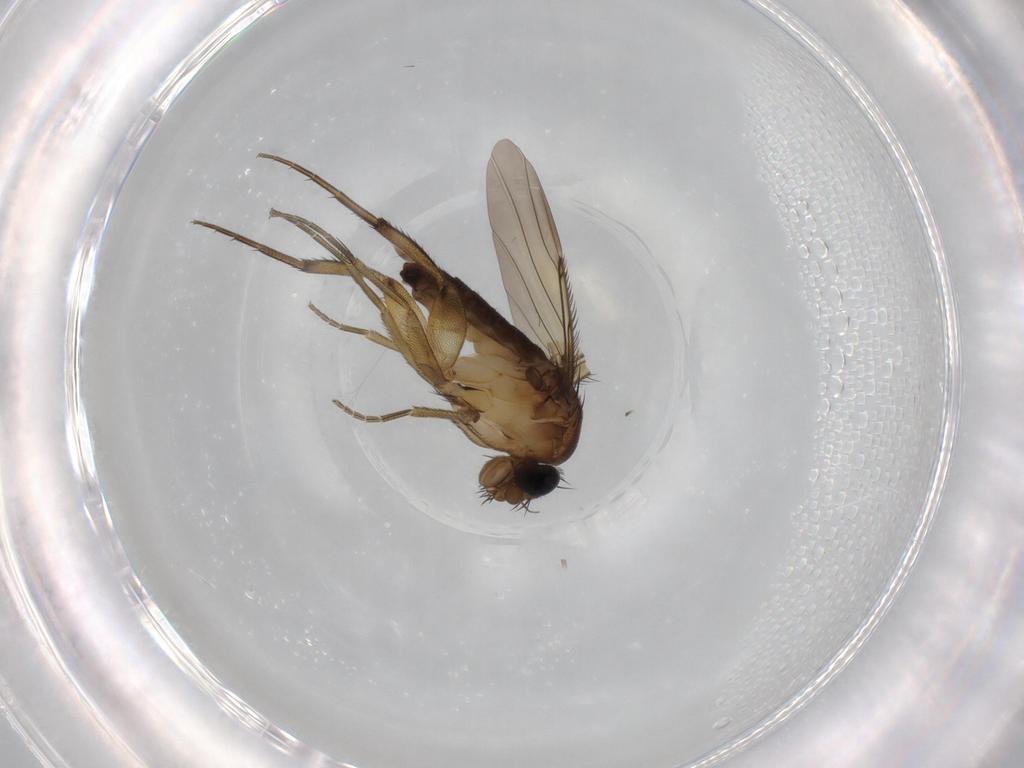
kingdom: Animalia
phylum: Arthropoda
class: Insecta
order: Diptera
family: Phoridae
